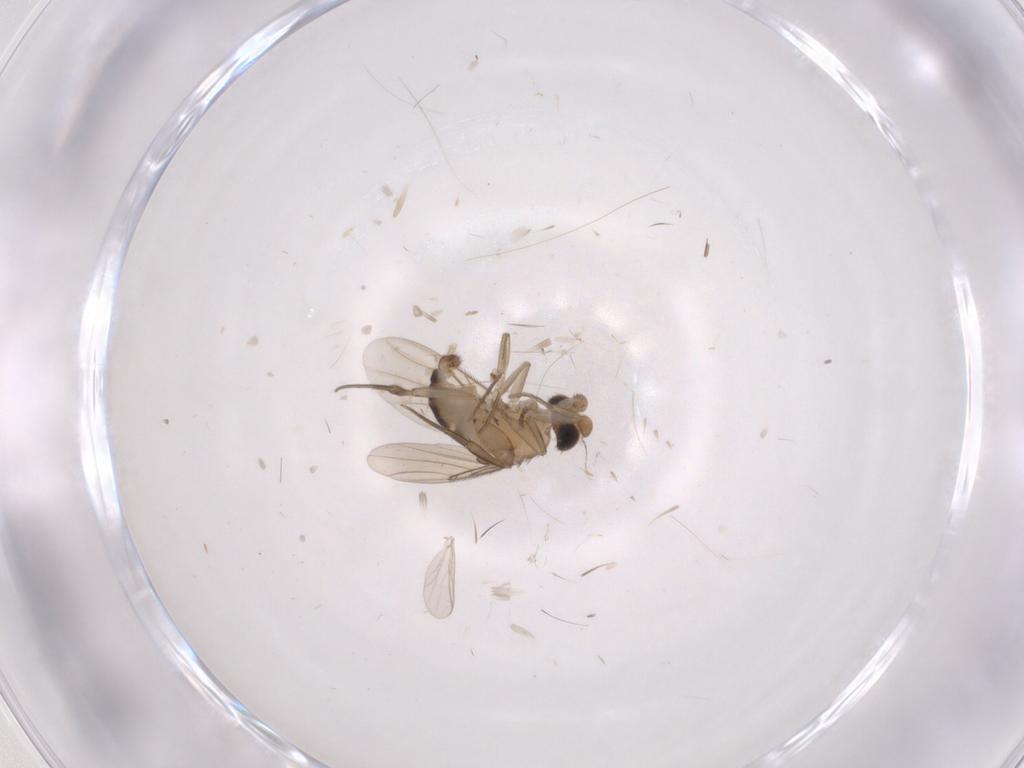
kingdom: Animalia
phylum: Arthropoda
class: Insecta
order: Diptera
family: Phoridae
